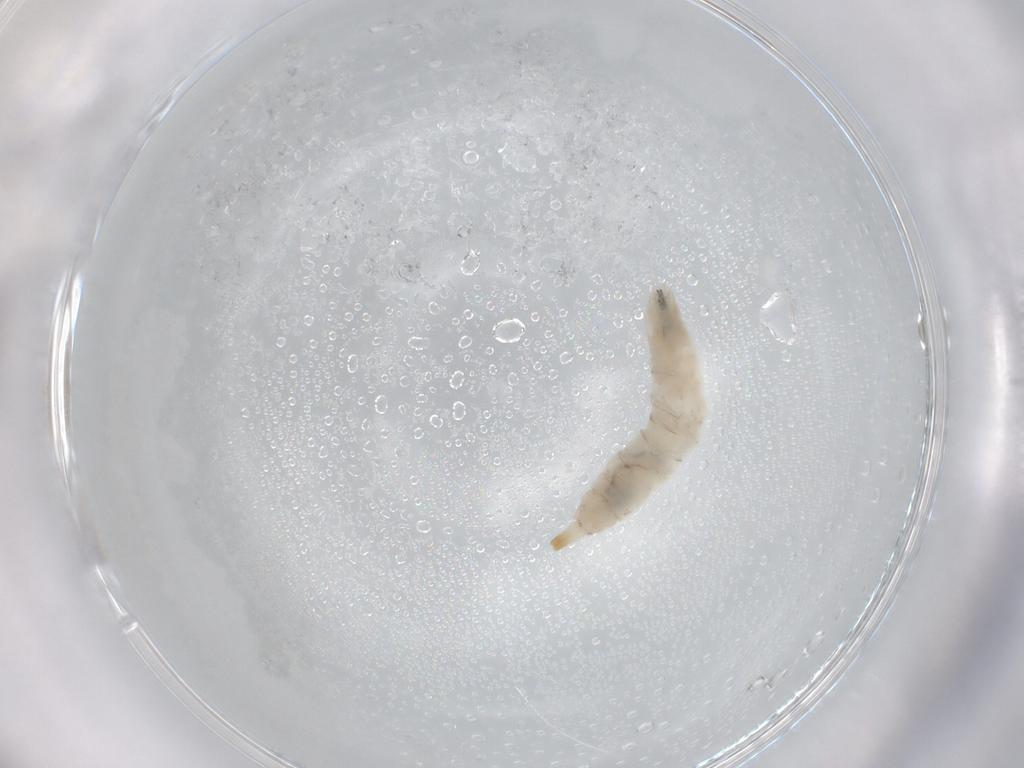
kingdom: Animalia
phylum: Arthropoda
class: Insecta
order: Diptera
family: Drosophilidae
